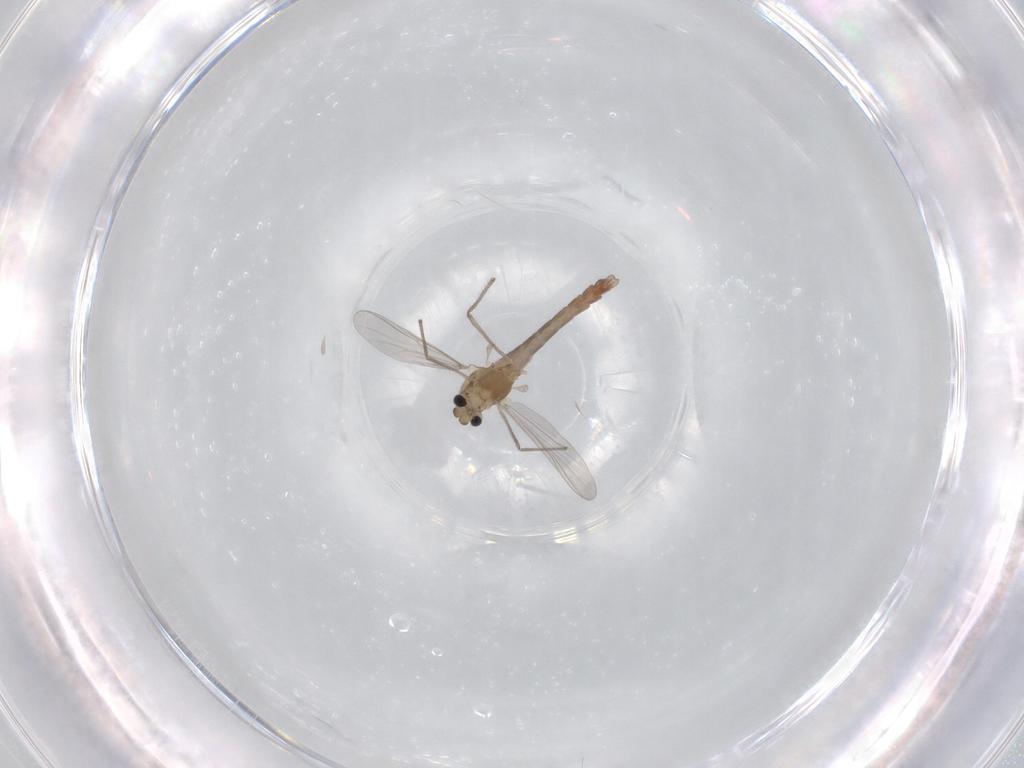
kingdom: Animalia
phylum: Arthropoda
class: Insecta
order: Diptera
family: Chironomidae
